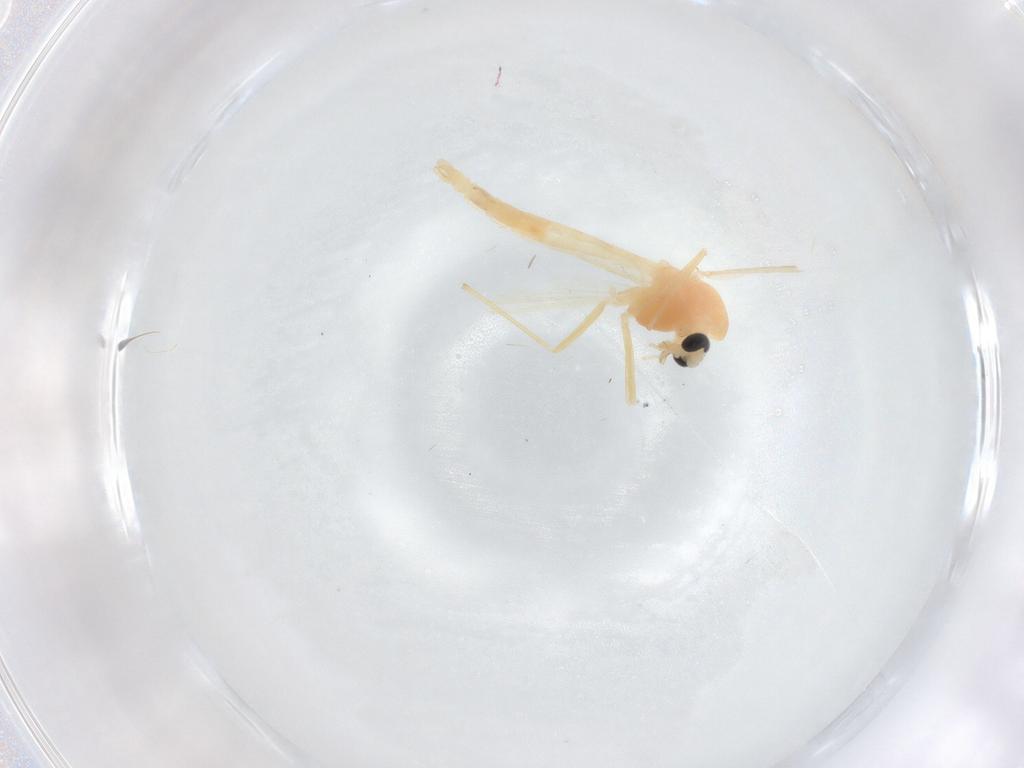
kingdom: Animalia
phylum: Arthropoda
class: Insecta
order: Diptera
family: Chironomidae
